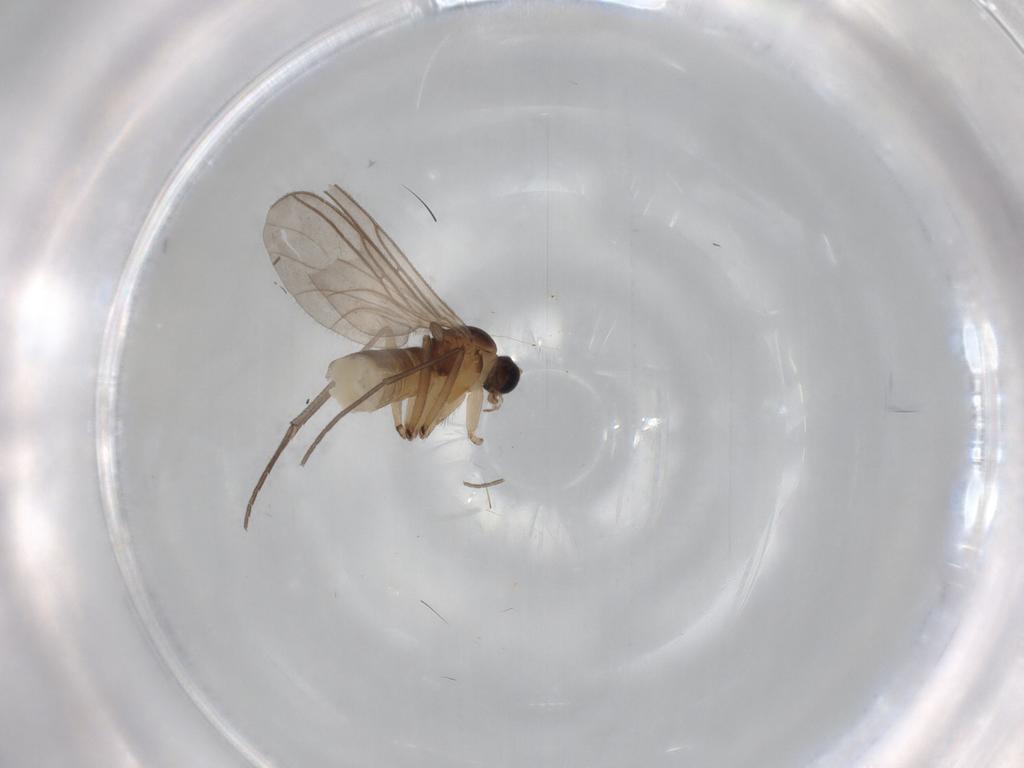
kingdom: Animalia
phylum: Arthropoda
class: Insecta
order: Diptera
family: Sciaridae
